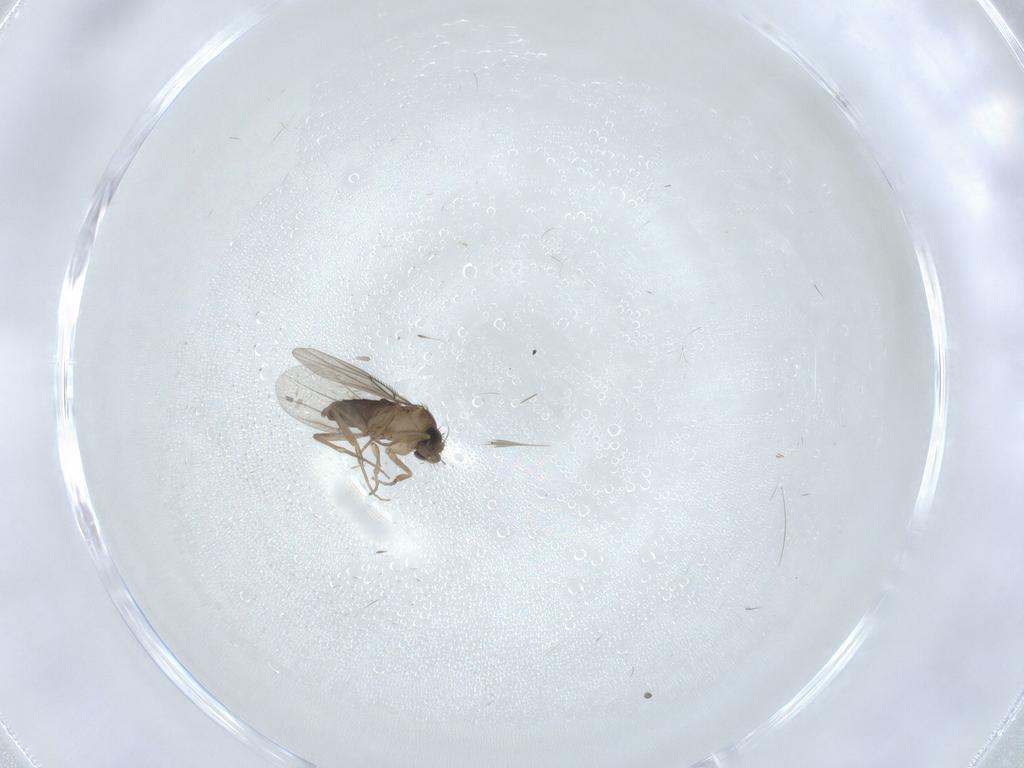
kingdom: Animalia
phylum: Arthropoda
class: Insecta
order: Diptera
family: Phoridae
